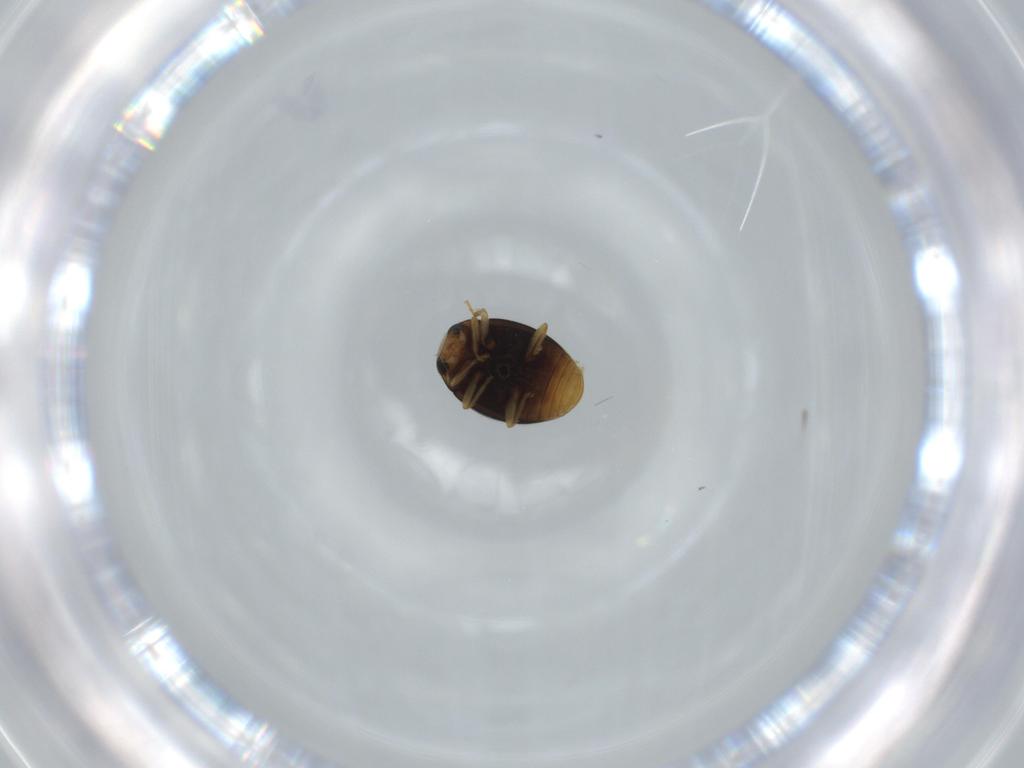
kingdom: Animalia
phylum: Arthropoda
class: Insecta
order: Coleoptera
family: Coccinellidae
